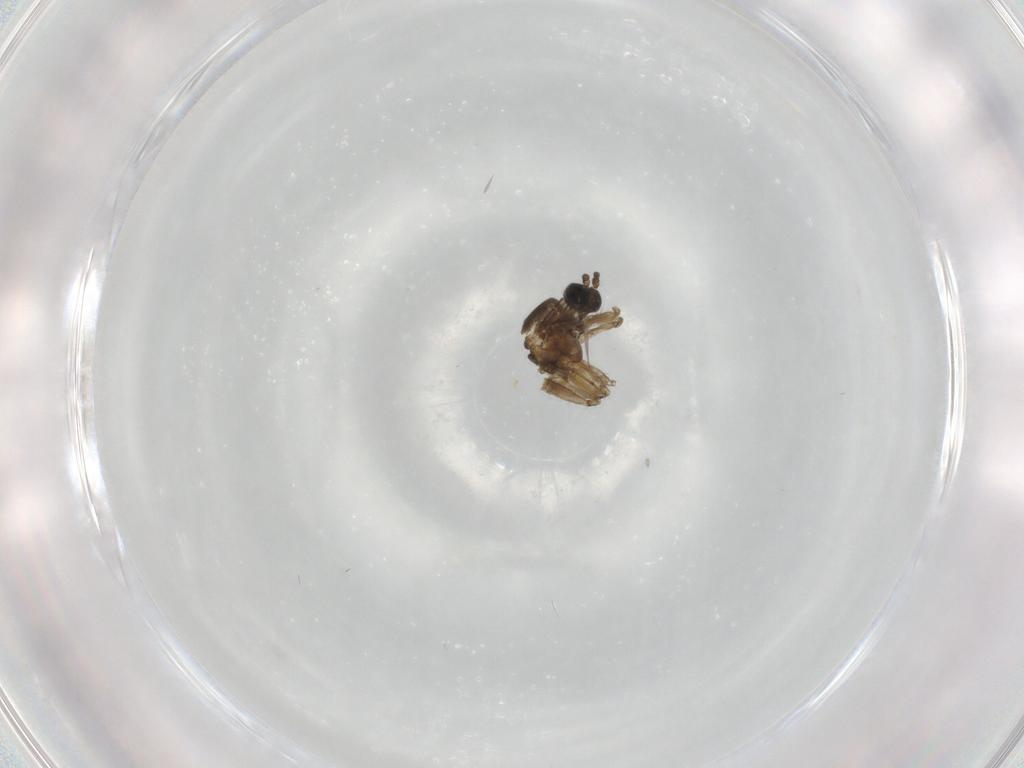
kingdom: Animalia
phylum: Arthropoda
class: Insecta
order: Diptera
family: Sciaridae
